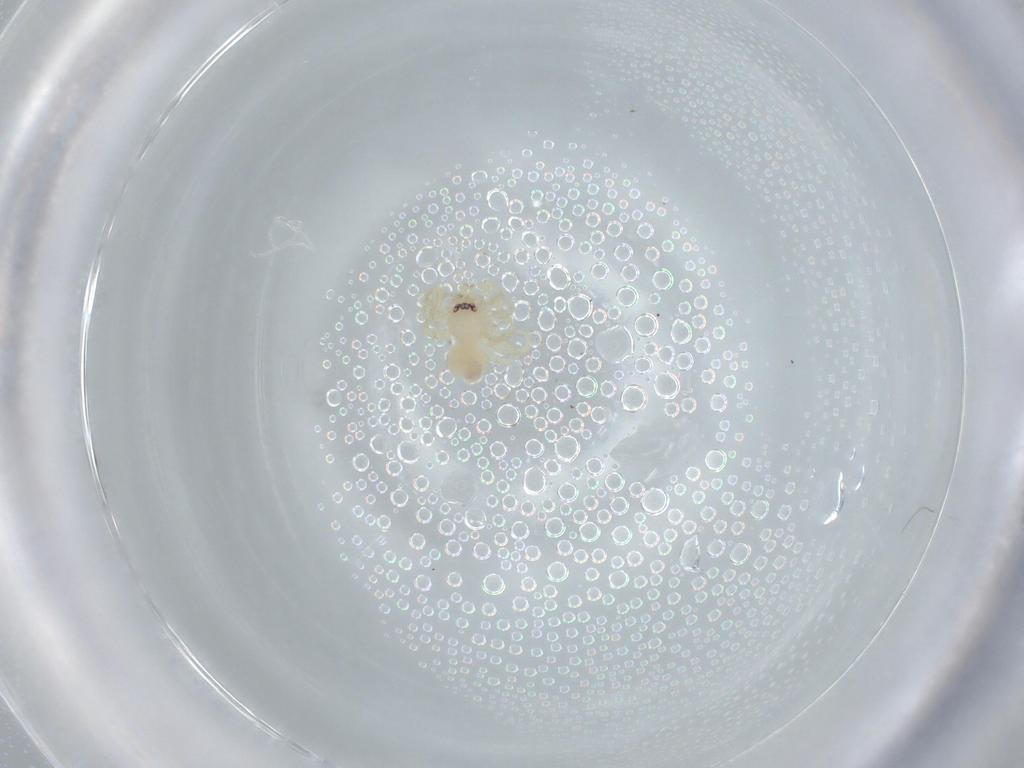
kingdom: Animalia
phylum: Arthropoda
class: Arachnida
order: Araneae
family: Oonopidae
